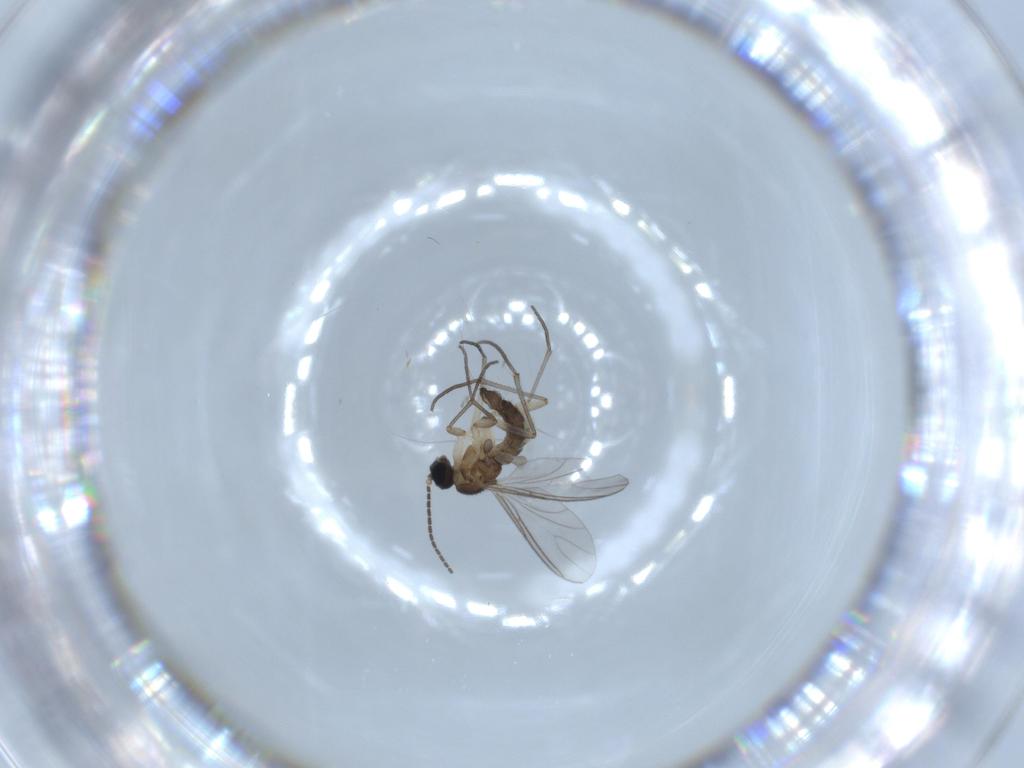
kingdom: Animalia
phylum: Arthropoda
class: Insecta
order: Diptera
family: Sciaridae
